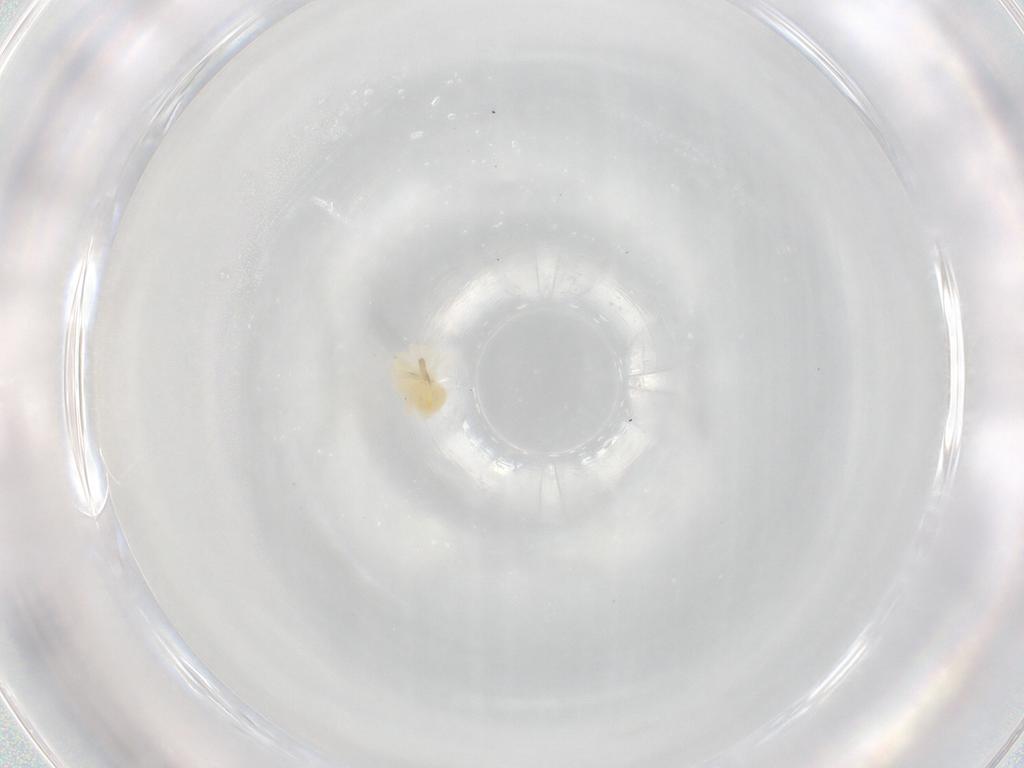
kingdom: Animalia
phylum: Arthropoda
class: Arachnida
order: Trombidiformes
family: Anystidae
